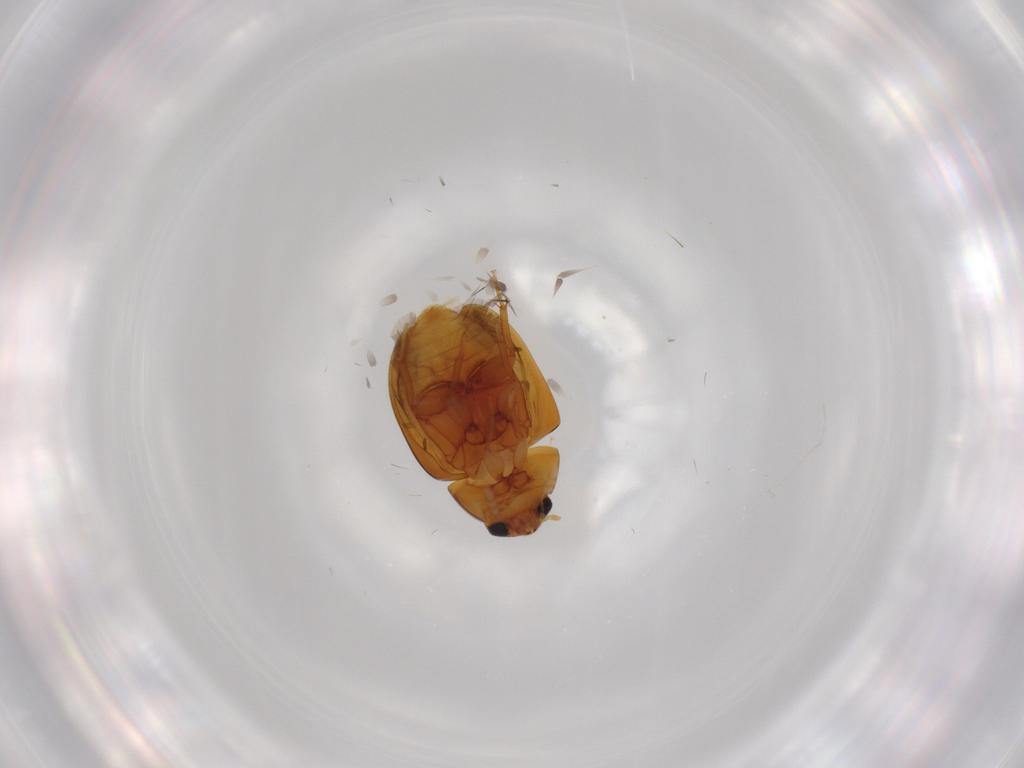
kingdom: Animalia
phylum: Arthropoda
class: Insecta
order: Coleoptera
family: Phalacridae
